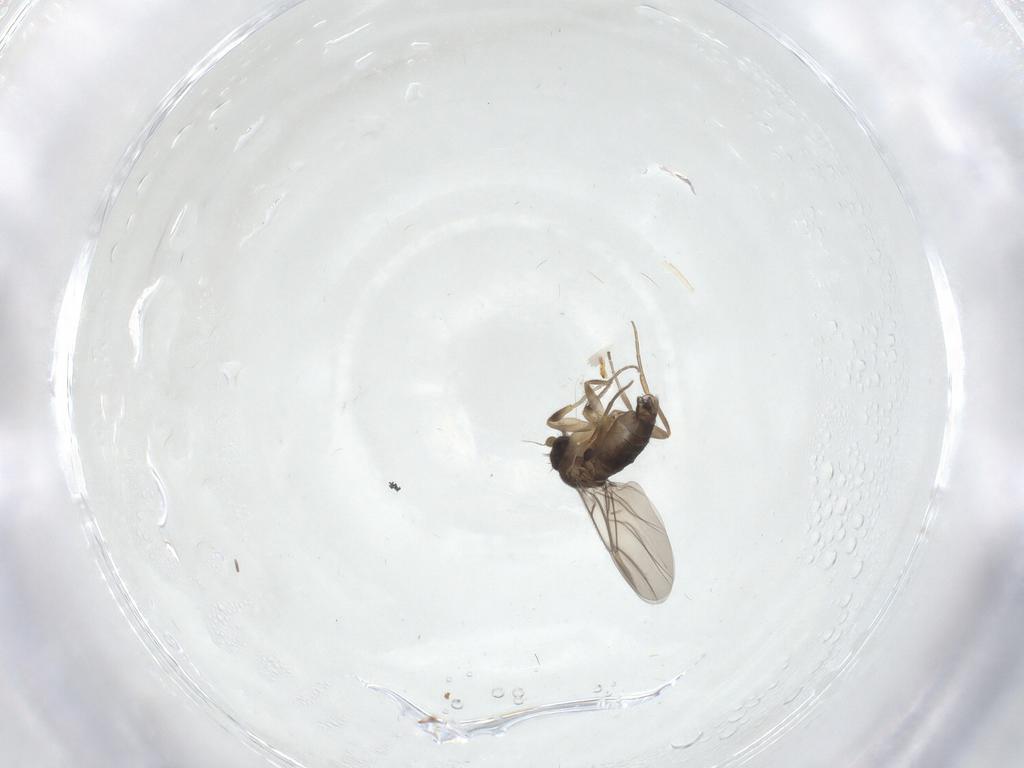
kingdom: Animalia
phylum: Arthropoda
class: Insecta
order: Diptera
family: Phoridae
